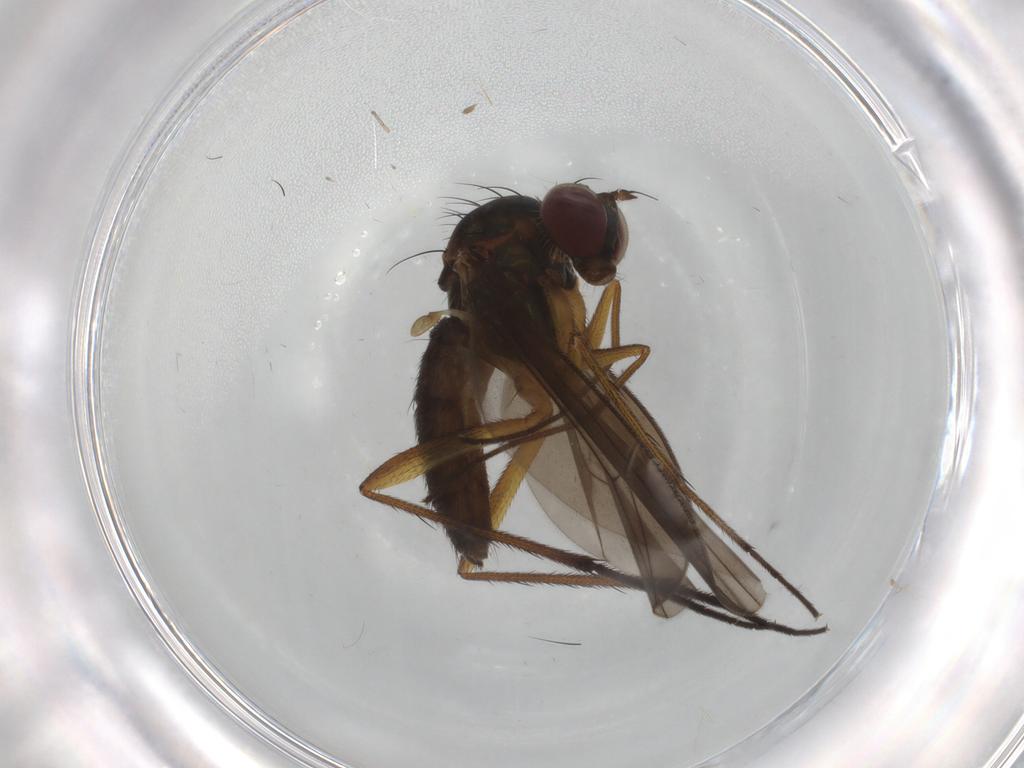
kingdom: Animalia
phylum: Arthropoda
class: Insecta
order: Diptera
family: Dolichopodidae
